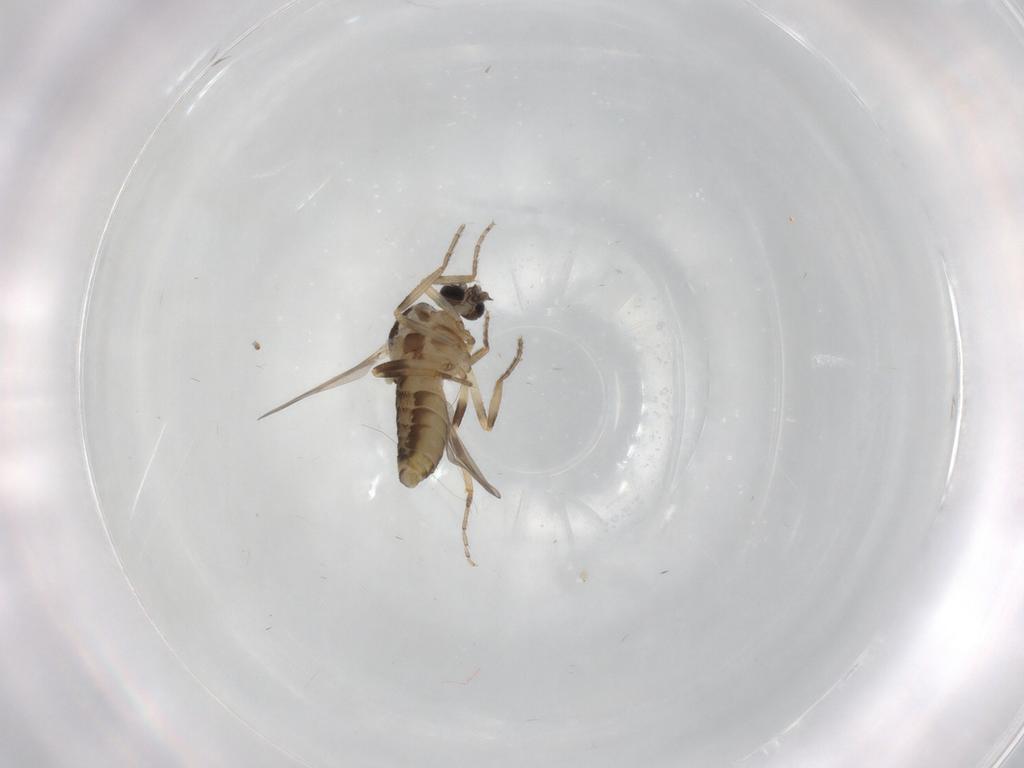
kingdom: Animalia
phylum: Arthropoda
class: Insecta
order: Diptera
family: Ceratopogonidae
